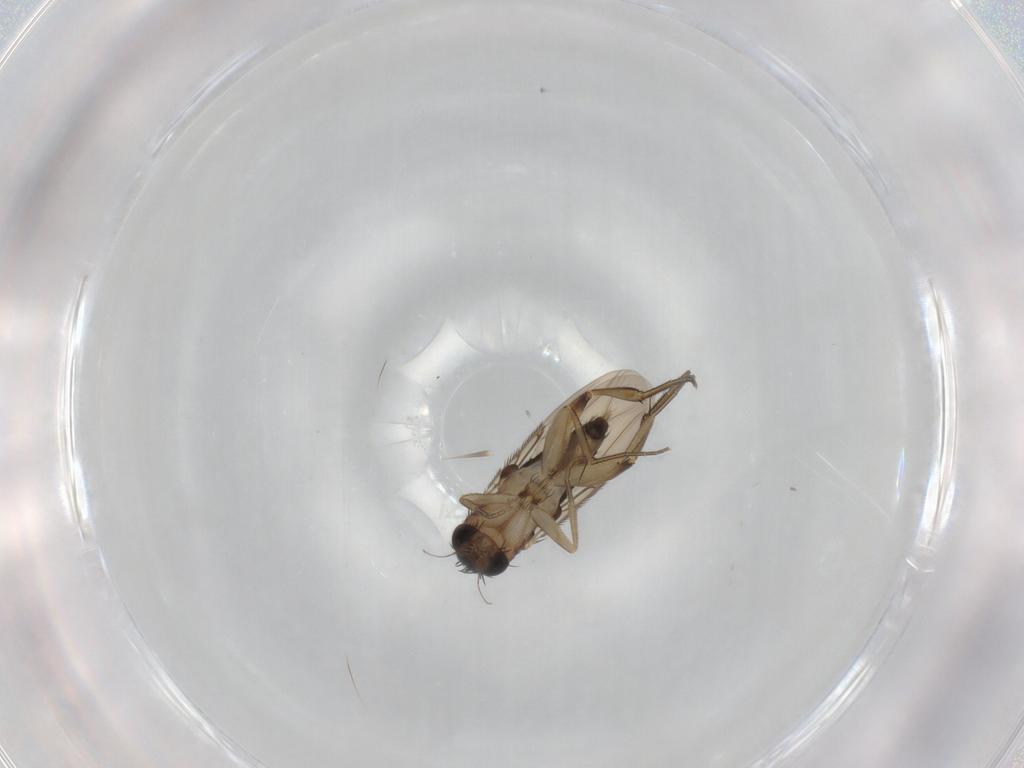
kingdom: Animalia
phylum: Arthropoda
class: Insecta
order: Diptera
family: Phoridae
